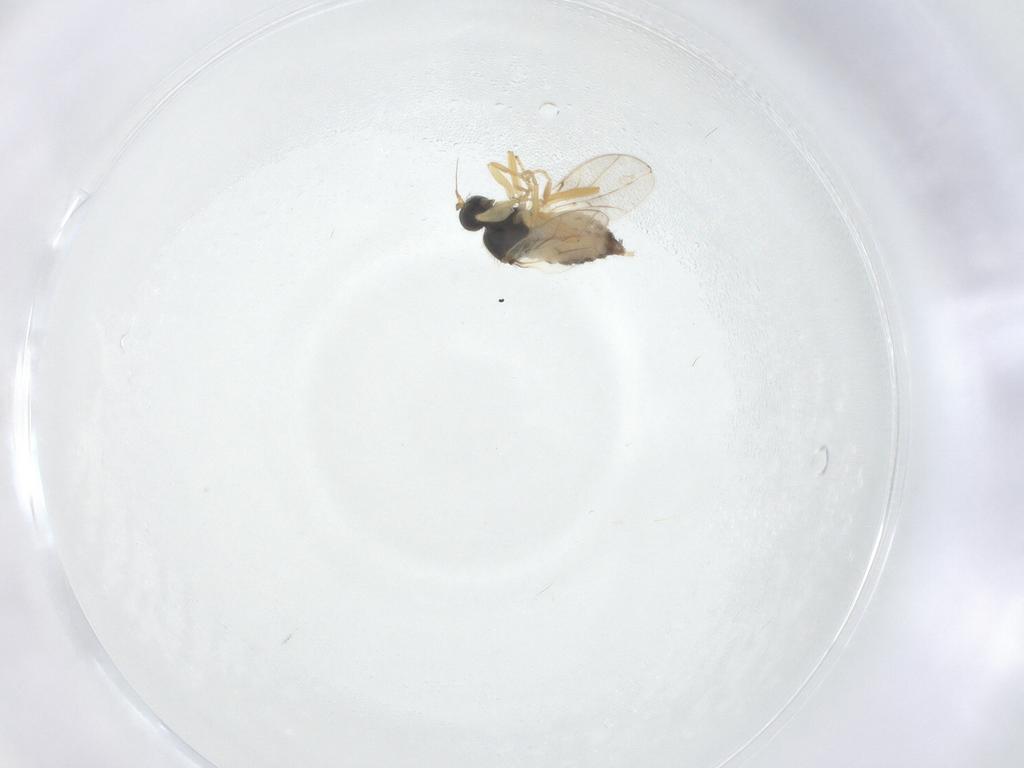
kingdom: Animalia
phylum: Arthropoda
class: Insecta
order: Diptera
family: Hybotidae
